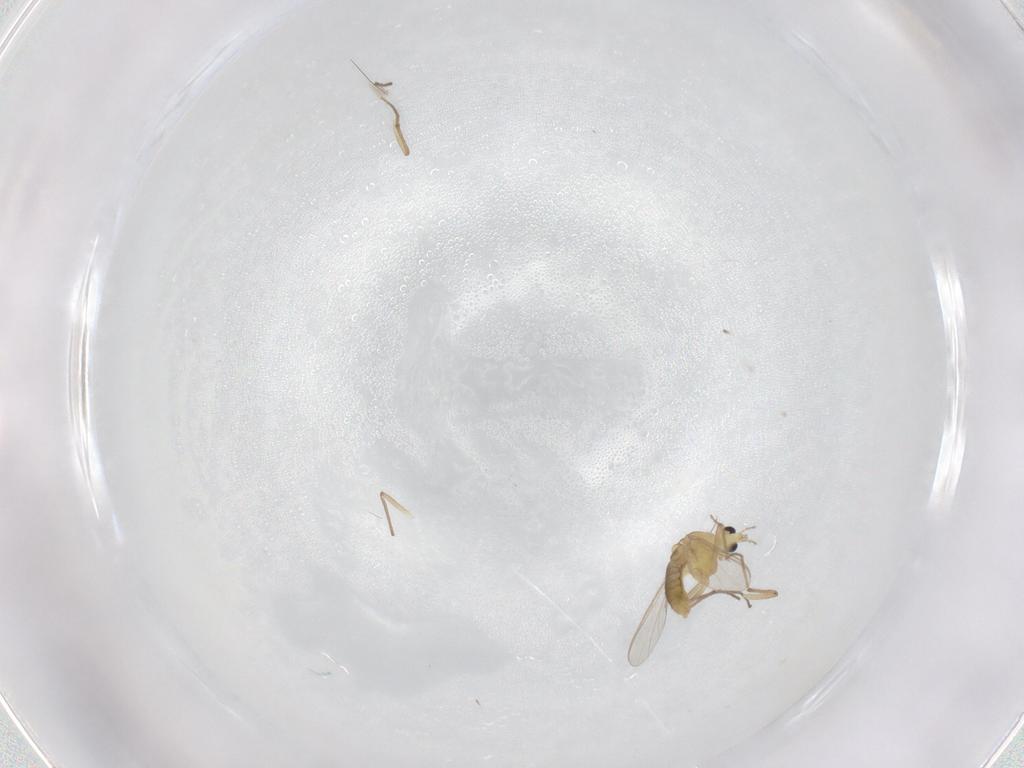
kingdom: Animalia
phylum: Arthropoda
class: Insecta
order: Diptera
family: Chironomidae
